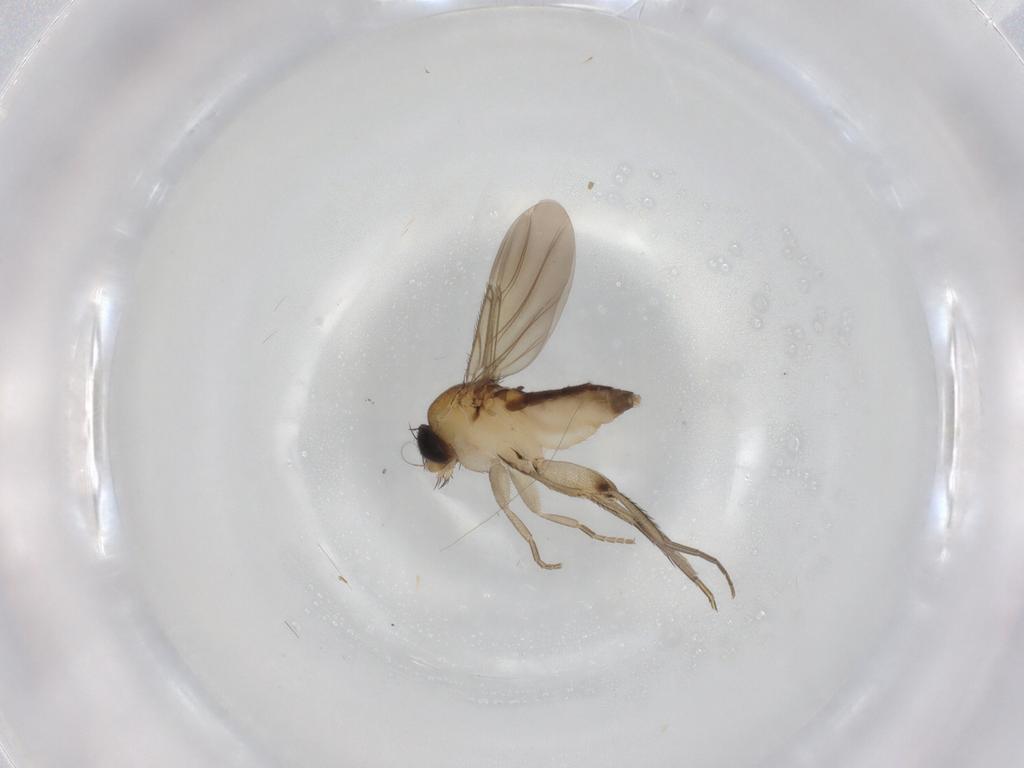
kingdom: Animalia
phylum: Arthropoda
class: Insecta
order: Diptera
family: Phoridae
